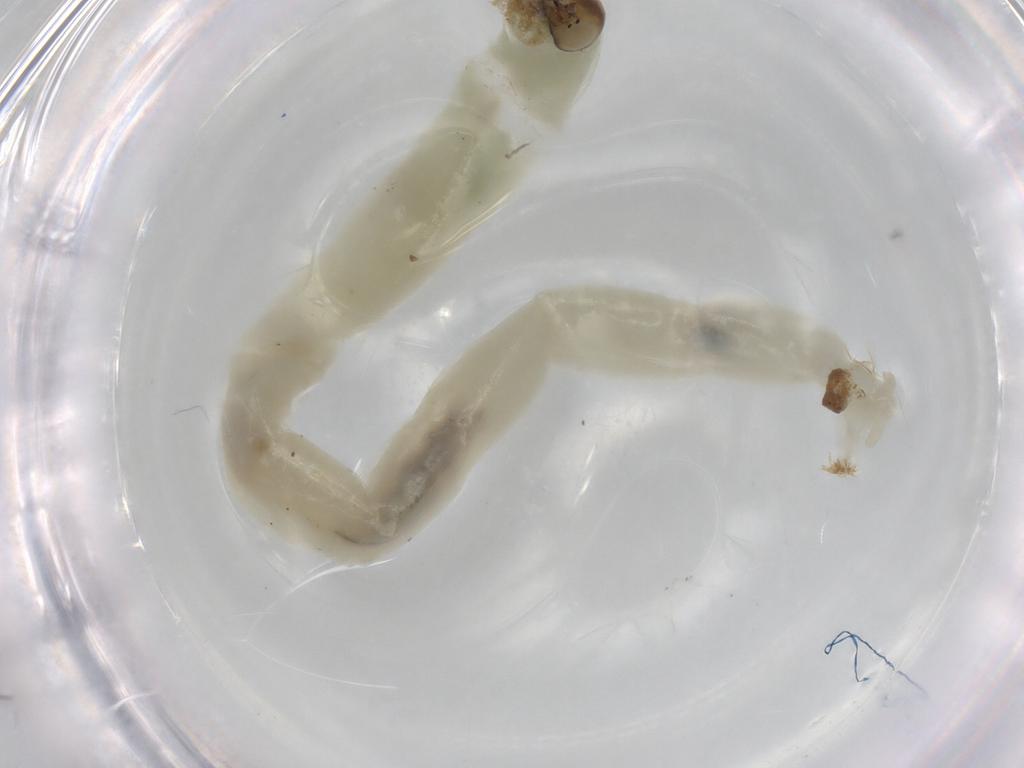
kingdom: Animalia
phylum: Arthropoda
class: Insecta
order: Diptera
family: Chironomidae
